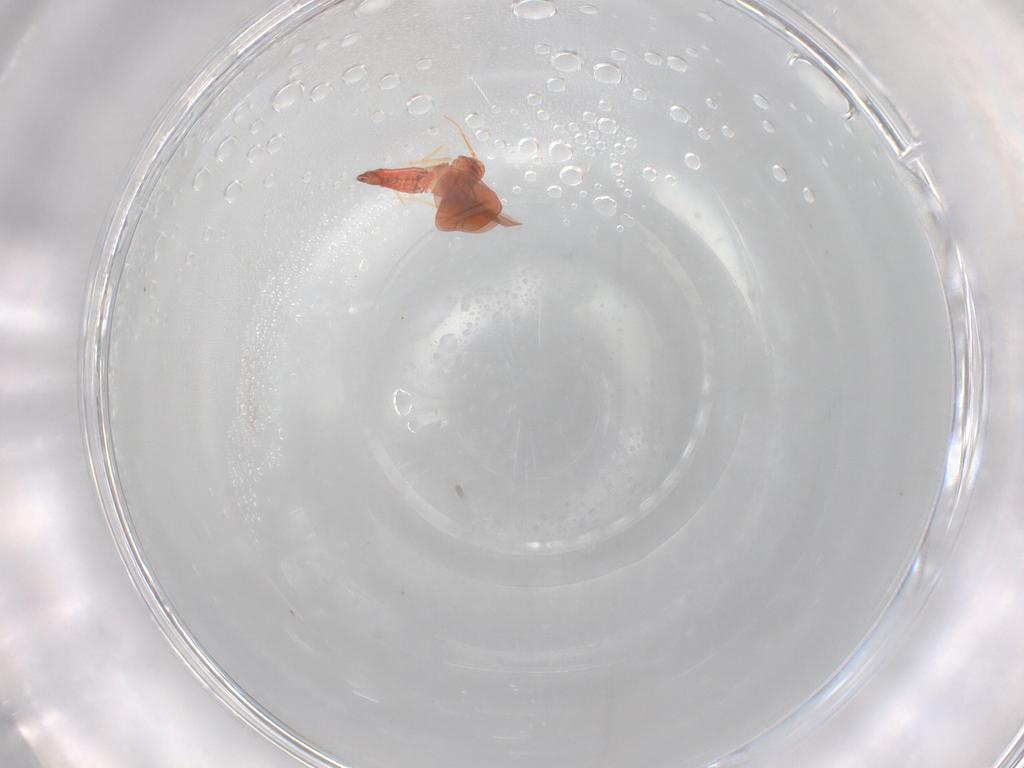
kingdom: Animalia
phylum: Arthropoda
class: Insecta
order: Hemiptera
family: Aleyrodidae
